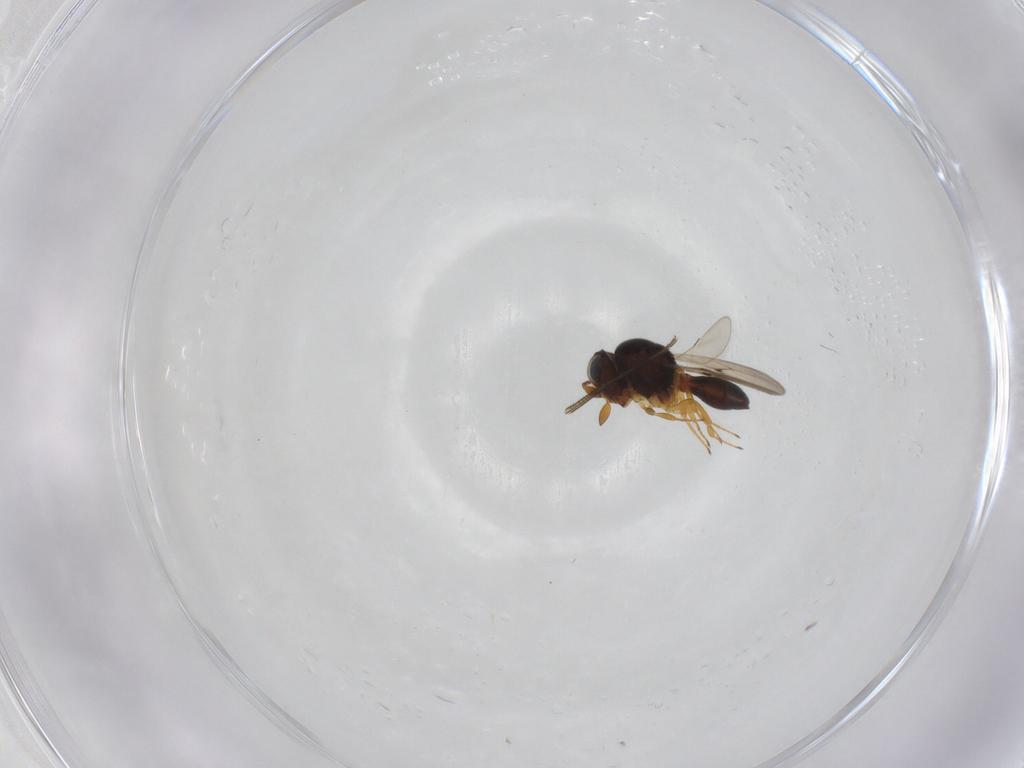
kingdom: Animalia
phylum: Arthropoda
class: Insecta
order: Hymenoptera
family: Scelionidae
